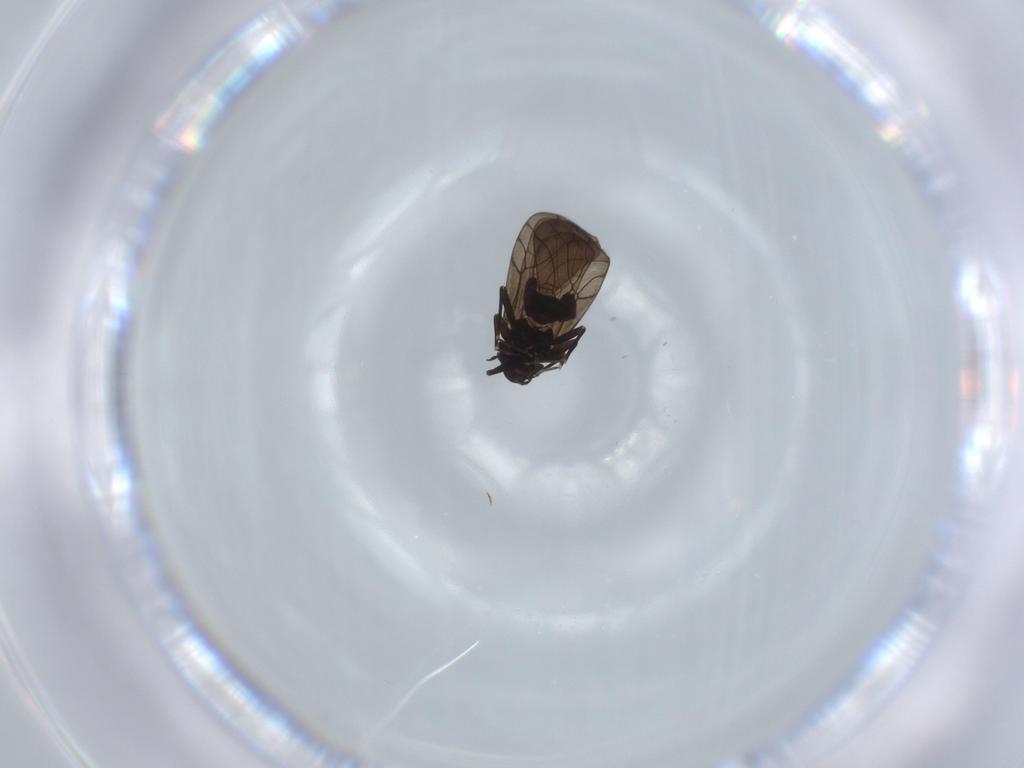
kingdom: Animalia
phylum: Arthropoda
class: Insecta
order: Psocodea
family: Lepidopsocidae
